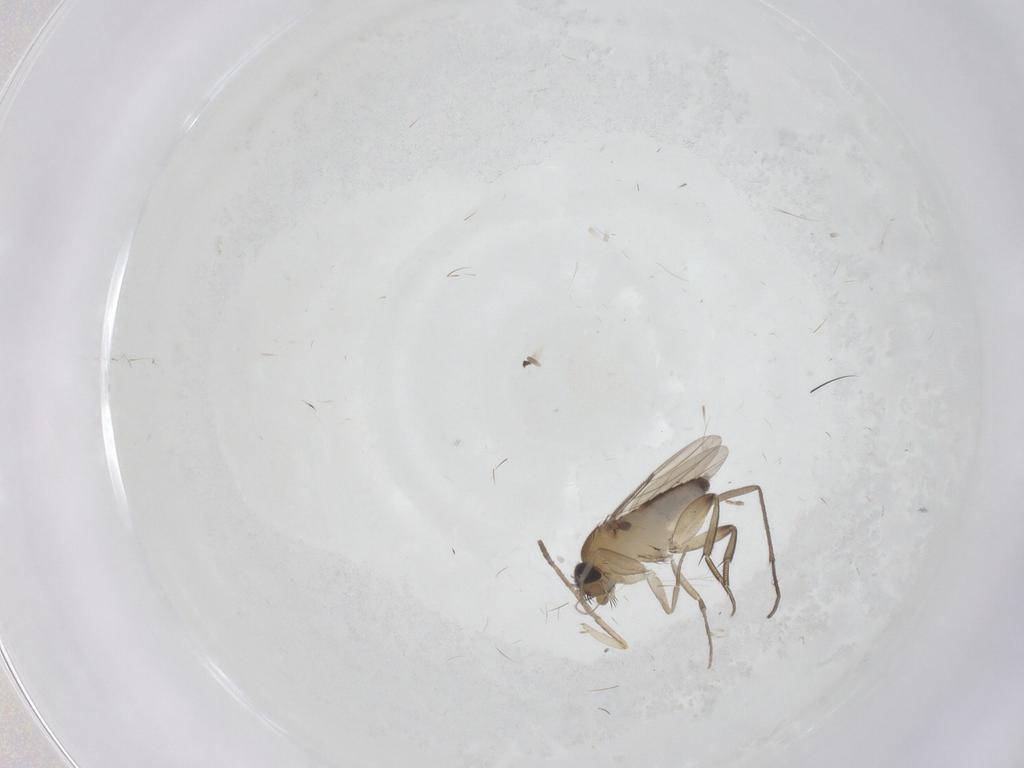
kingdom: Animalia
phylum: Arthropoda
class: Insecta
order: Diptera
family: Phoridae
